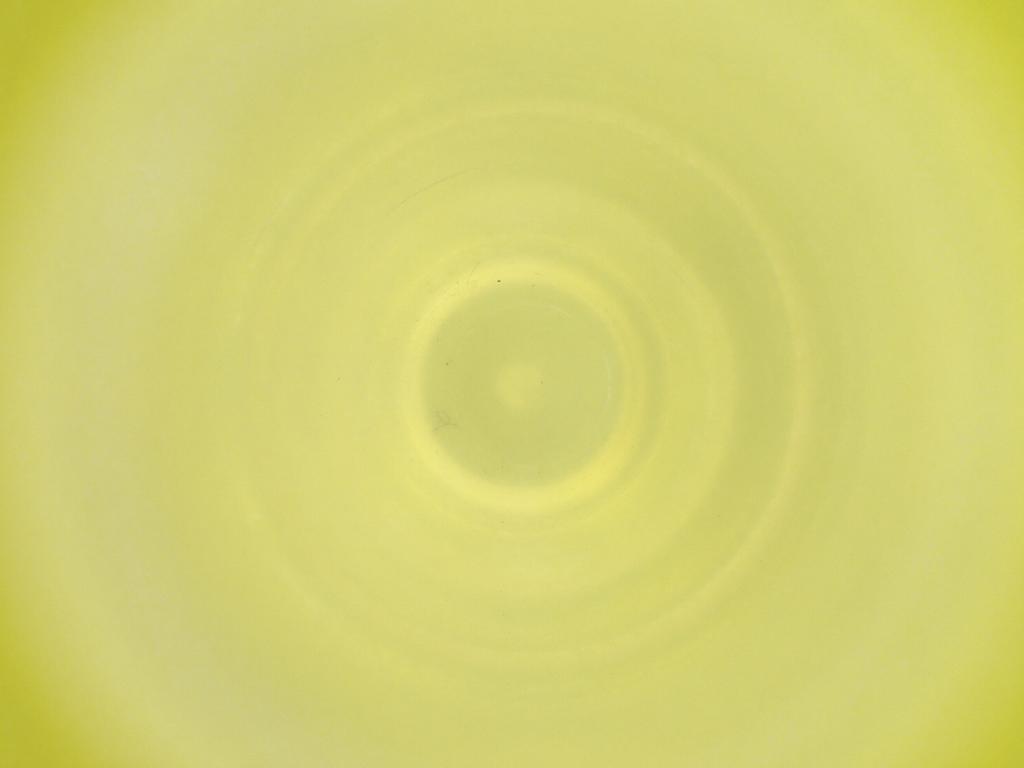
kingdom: Animalia
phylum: Arthropoda
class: Insecta
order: Diptera
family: Cecidomyiidae
